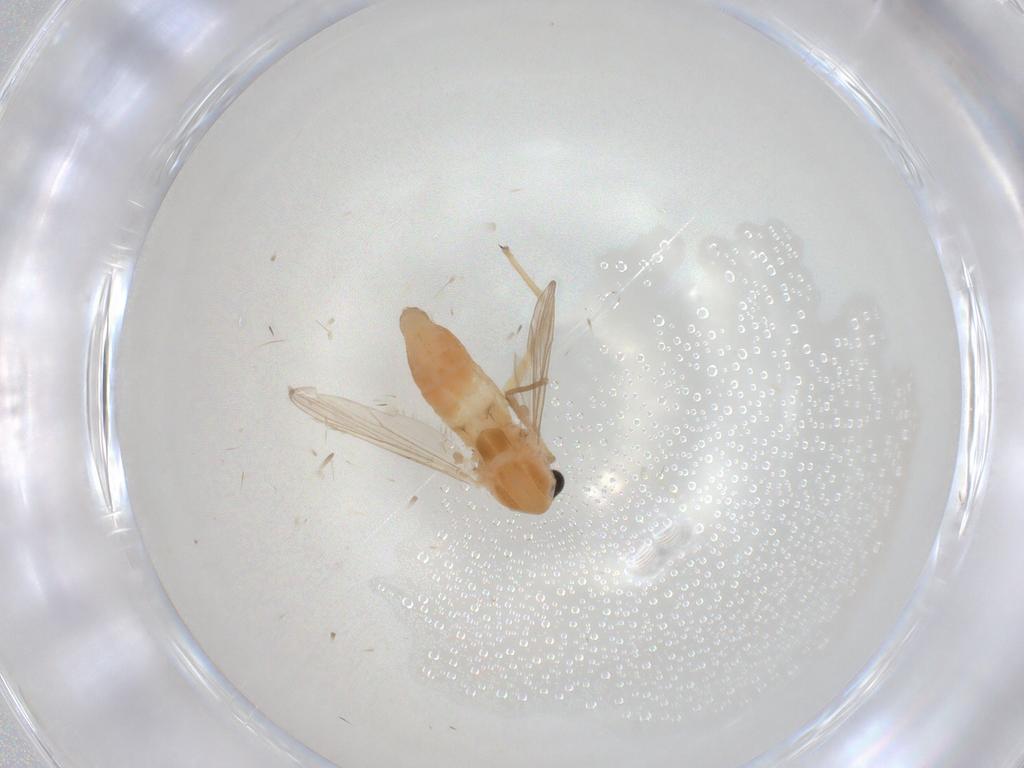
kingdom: Animalia
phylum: Arthropoda
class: Insecta
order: Diptera
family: Chironomidae
